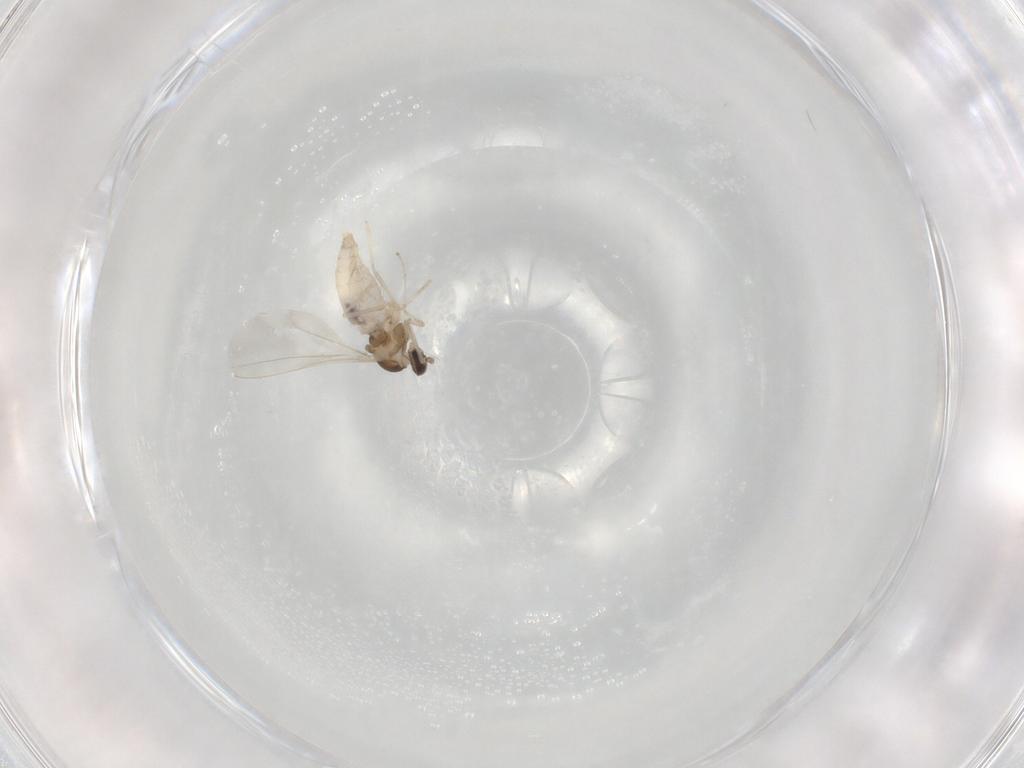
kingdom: Animalia
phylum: Arthropoda
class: Insecta
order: Diptera
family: Cecidomyiidae
